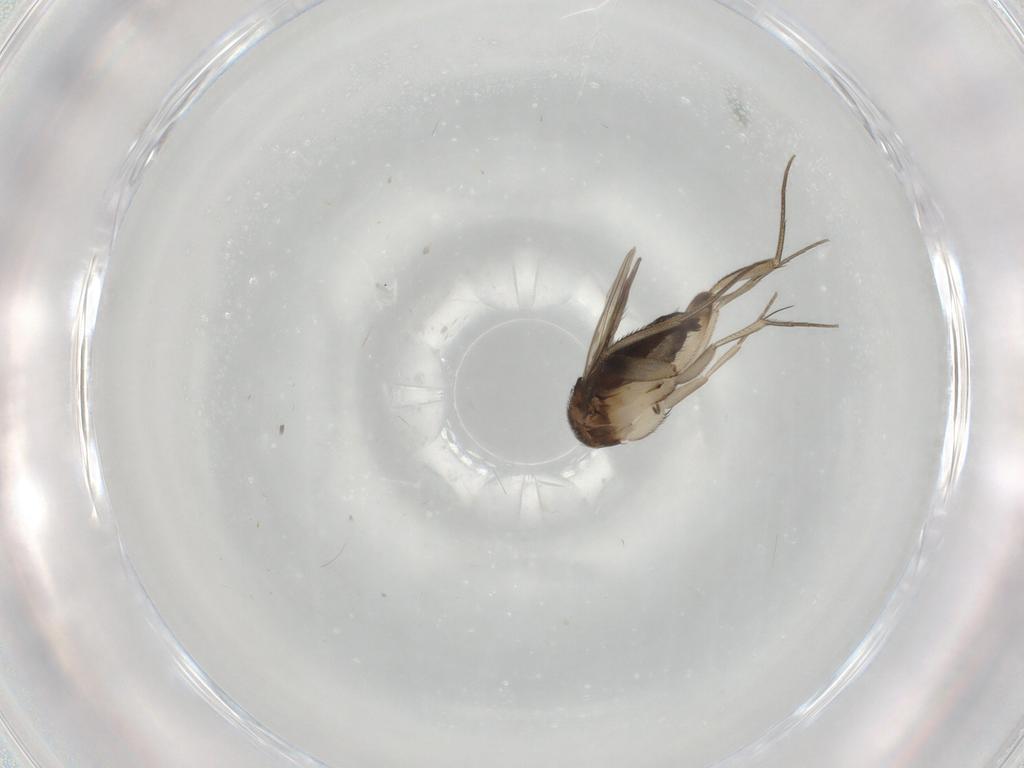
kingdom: Animalia
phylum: Arthropoda
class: Insecta
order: Diptera
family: Phoridae
